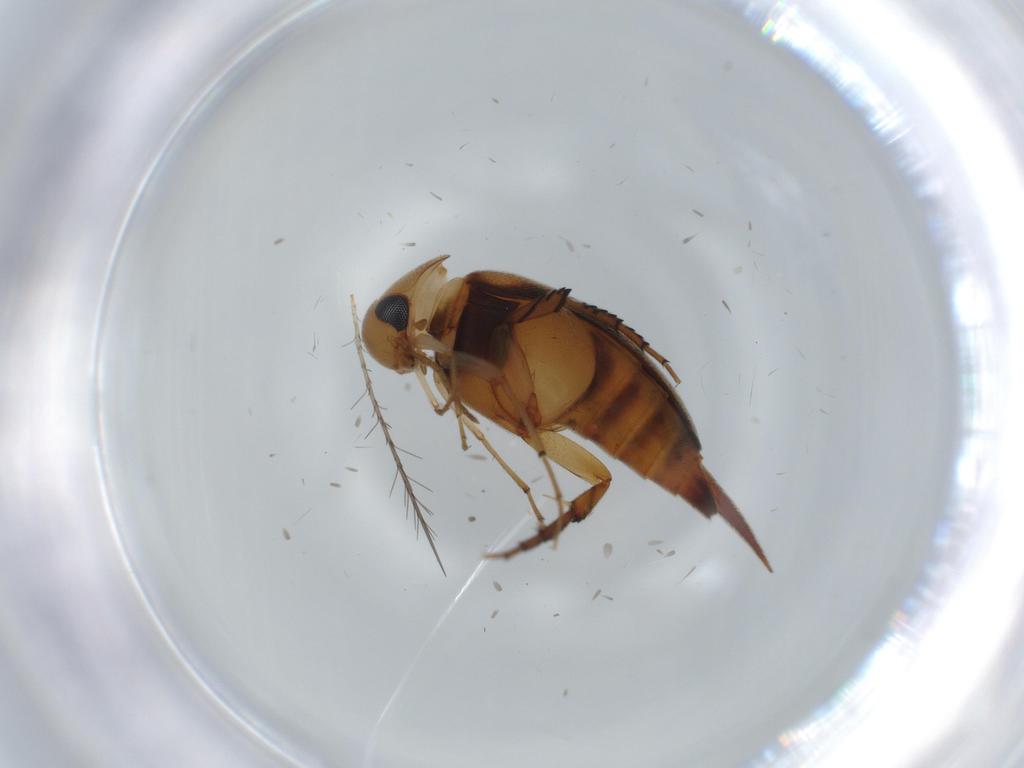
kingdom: Animalia
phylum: Arthropoda
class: Insecta
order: Coleoptera
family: Mordellidae
